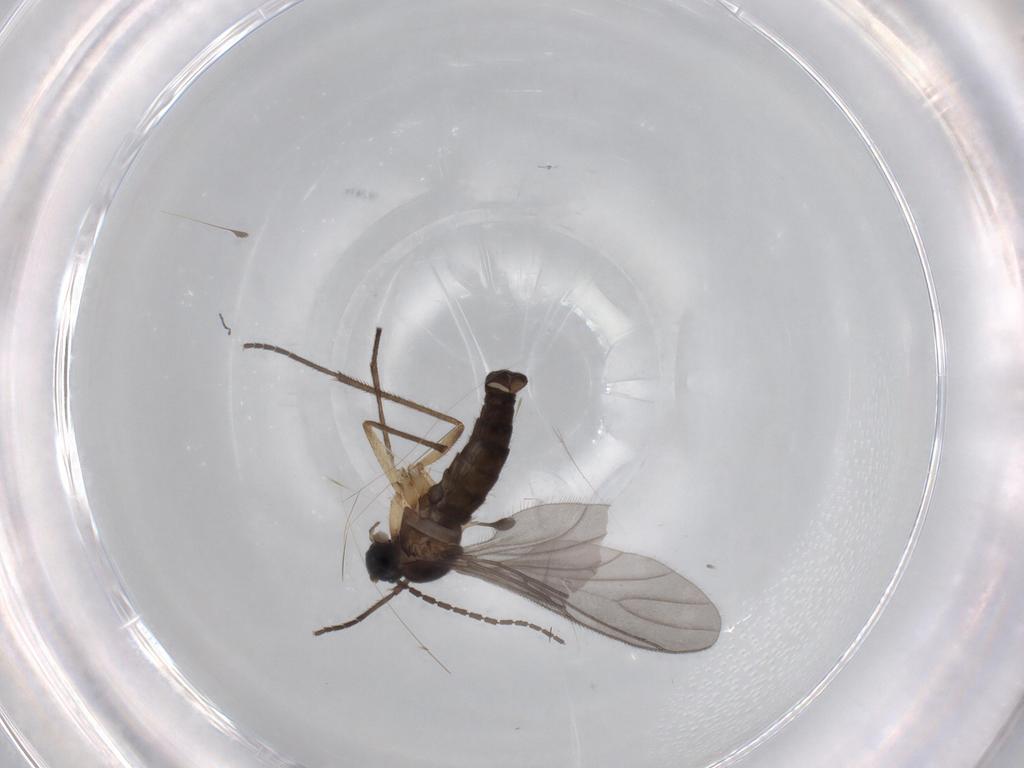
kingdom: Animalia
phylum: Arthropoda
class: Insecta
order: Diptera
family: Sciaridae
